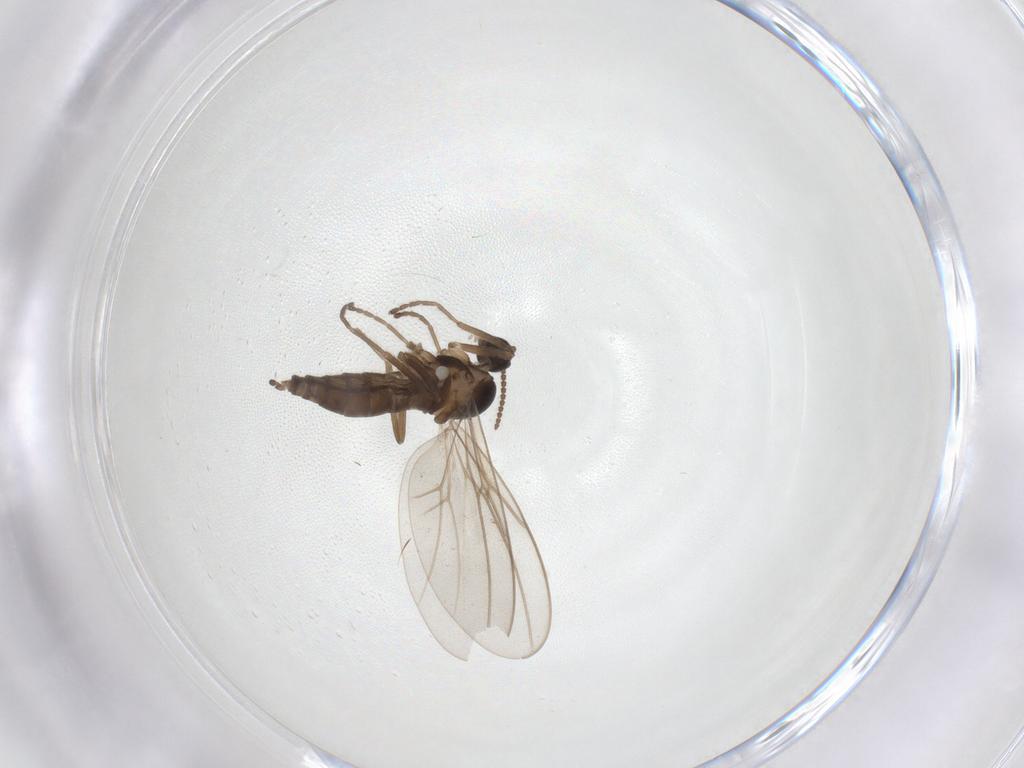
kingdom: Animalia
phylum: Arthropoda
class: Insecta
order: Diptera
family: Cecidomyiidae
